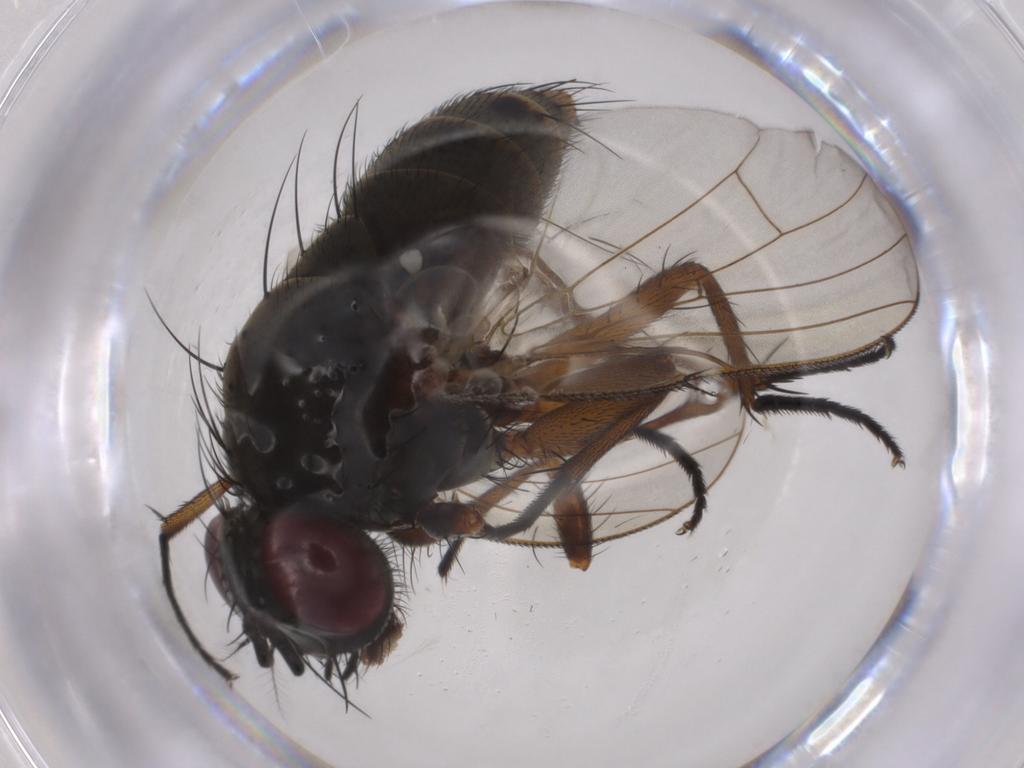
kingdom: Animalia
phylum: Arthropoda
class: Insecta
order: Diptera
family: Muscidae
